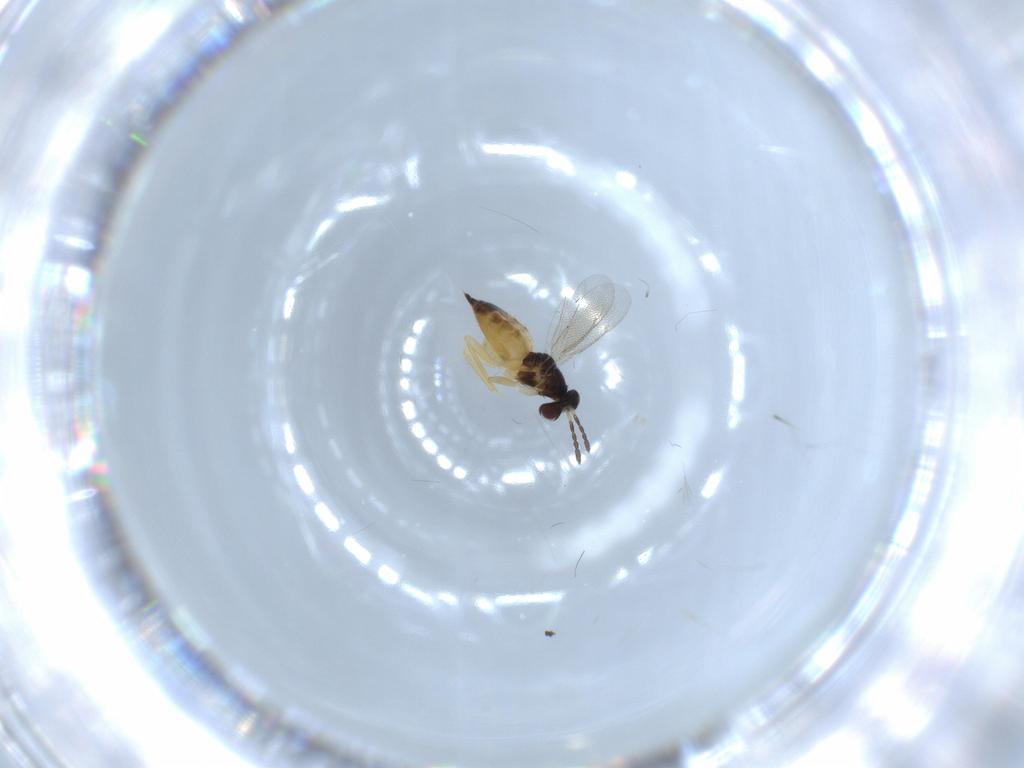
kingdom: Animalia
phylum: Arthropoda
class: Insecta
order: Hymenoptera
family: Eulophidae
